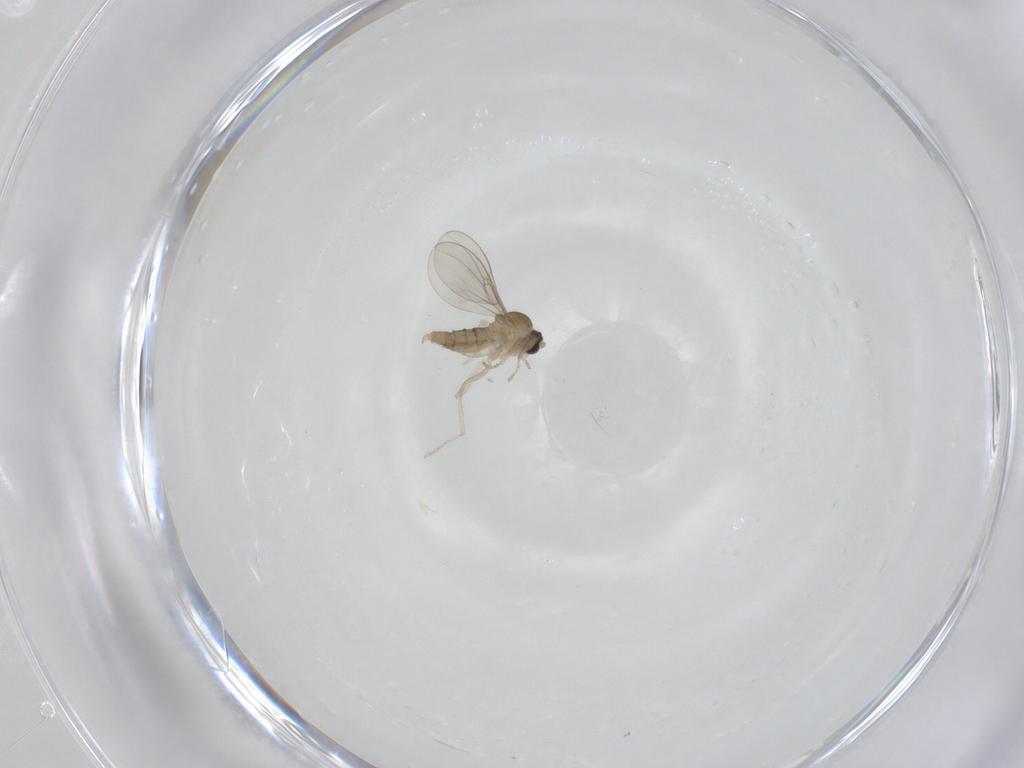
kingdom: Animalia
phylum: Arthropoda
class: Insecta
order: Diptera
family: Cecidomyiidae
